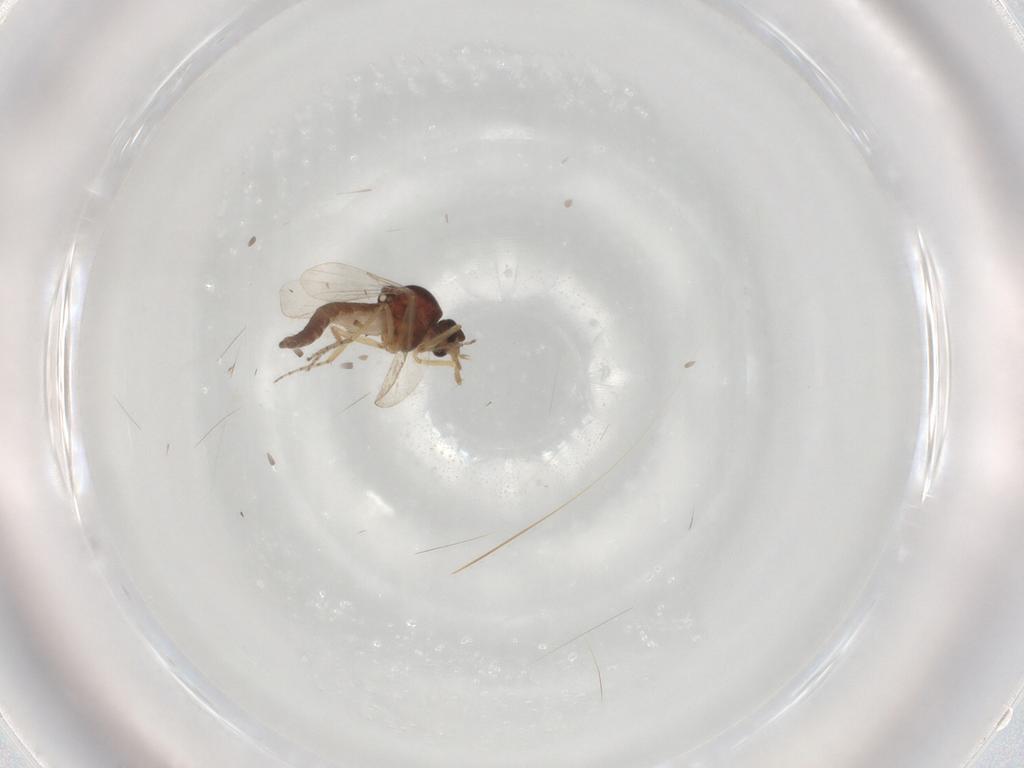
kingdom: Animalia
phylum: Arthropoda
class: Insecta
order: Diptera
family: Ceratopogonidae
